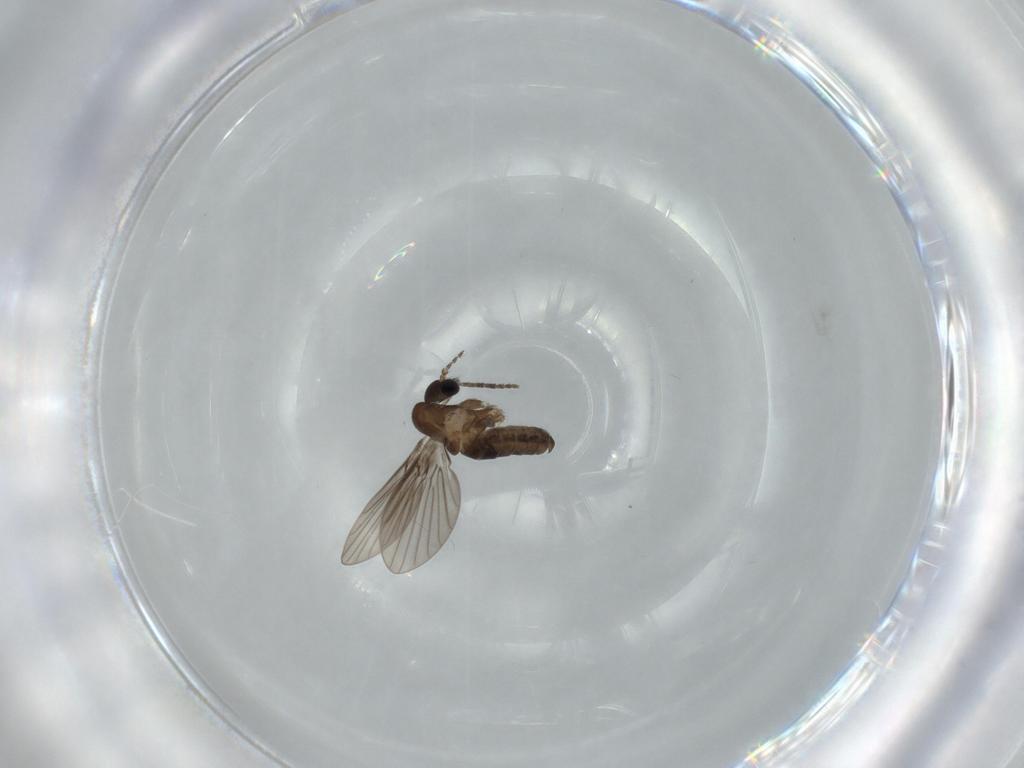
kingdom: Animalia
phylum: Arthropoda
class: Insecta
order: Diptera
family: Psychodidae
